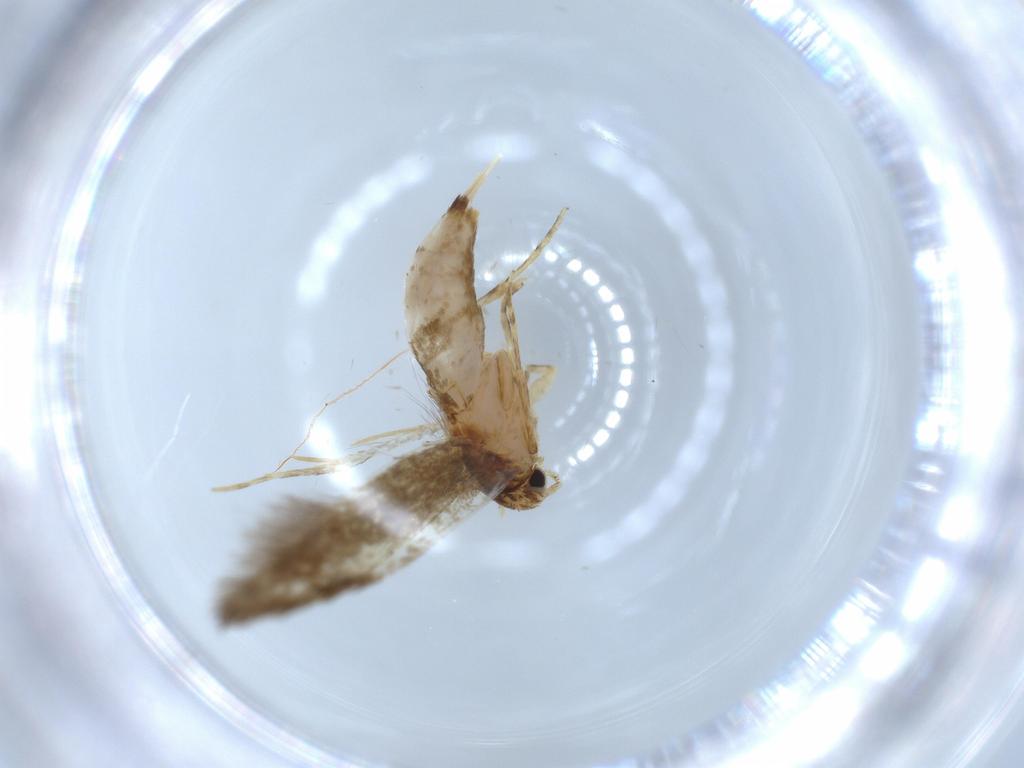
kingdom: Animalia
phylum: Arthropoda
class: Insecta
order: Lepidoptera
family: Tineidae
